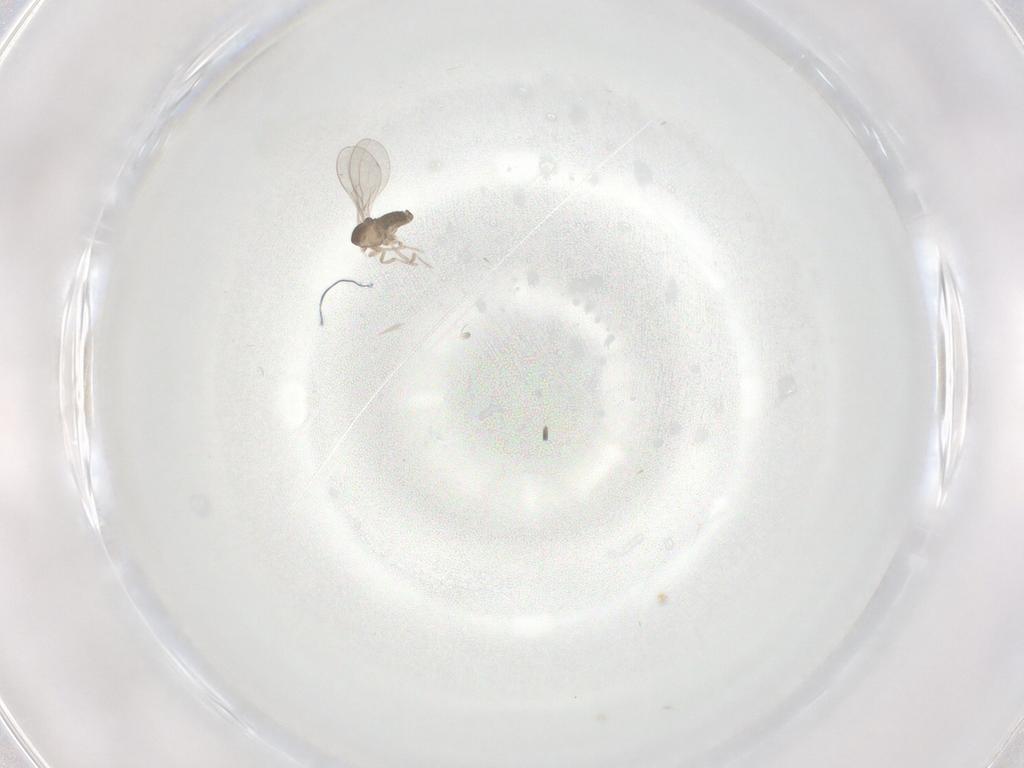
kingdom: Animalia
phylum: Arthropoda
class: Insecta
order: Diptera
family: Cecidomyiidae
